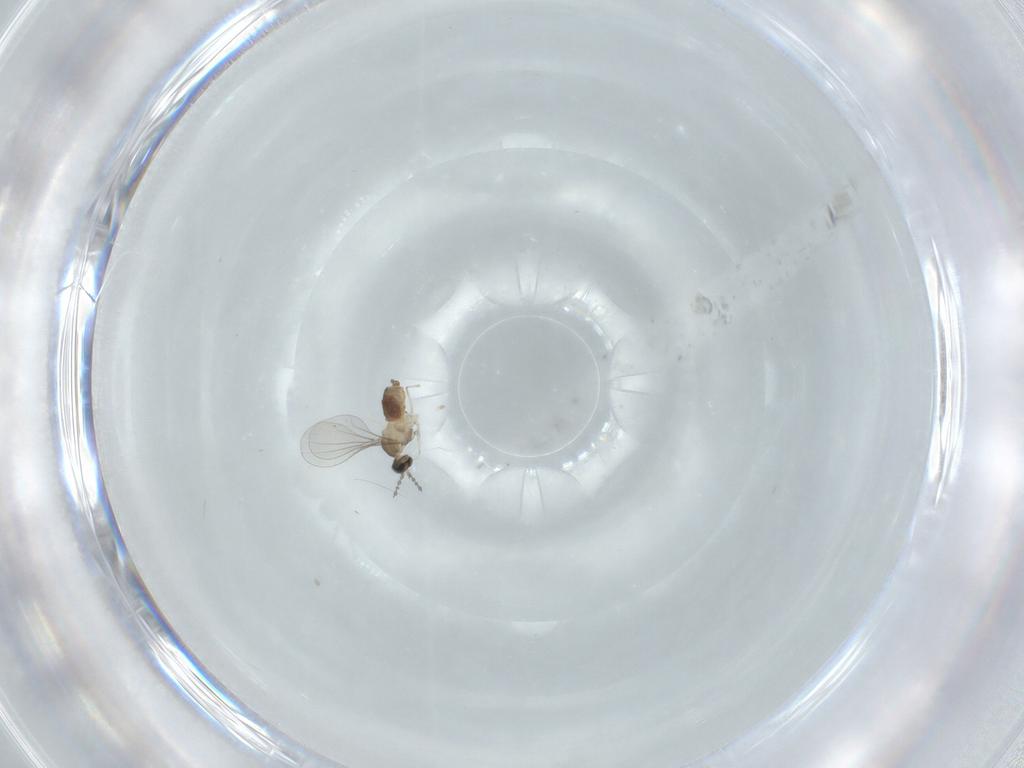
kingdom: Animalia
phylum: Arthropoda
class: Insecta
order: Diptera
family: Cecidomyiidae
